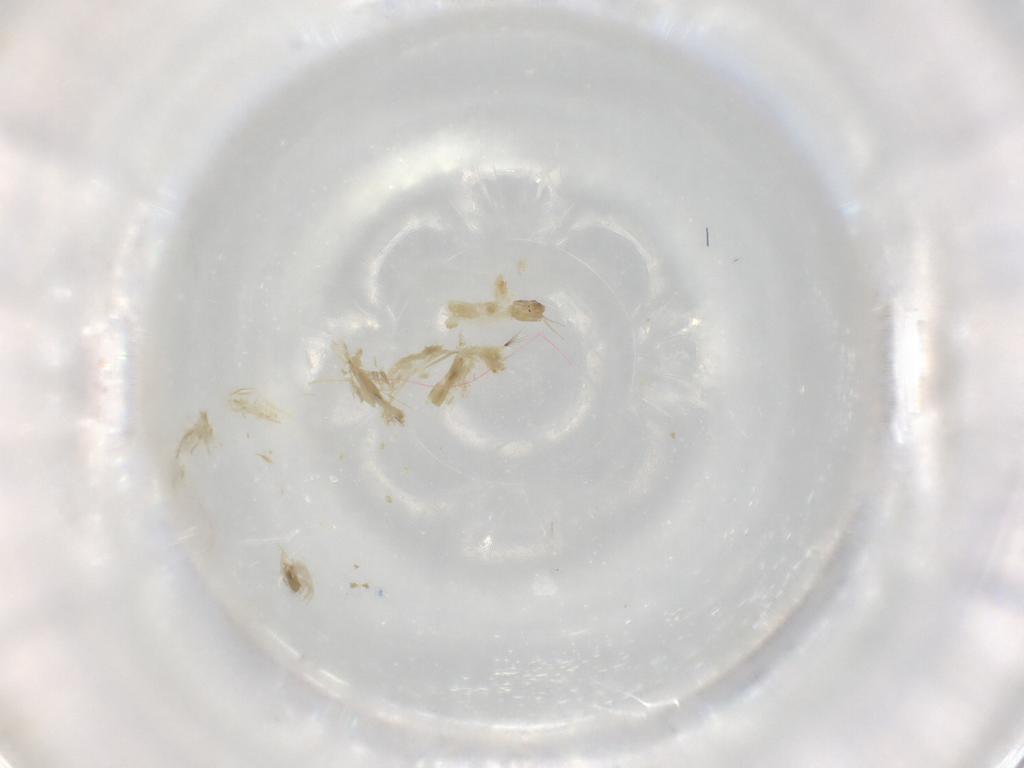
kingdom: Animalia
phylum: Arthropoda
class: Insecta
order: Diptera
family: Chironomidae
